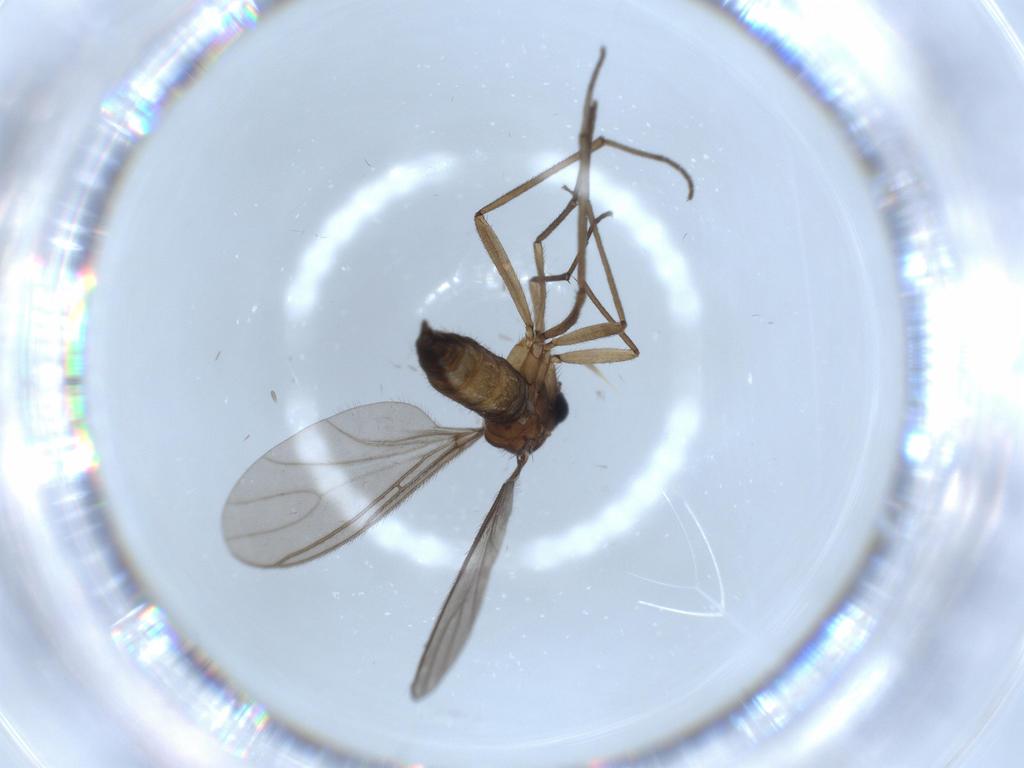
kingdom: Animalia
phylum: Arthropoda
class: Insecta
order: Diptera
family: Sciaridae
